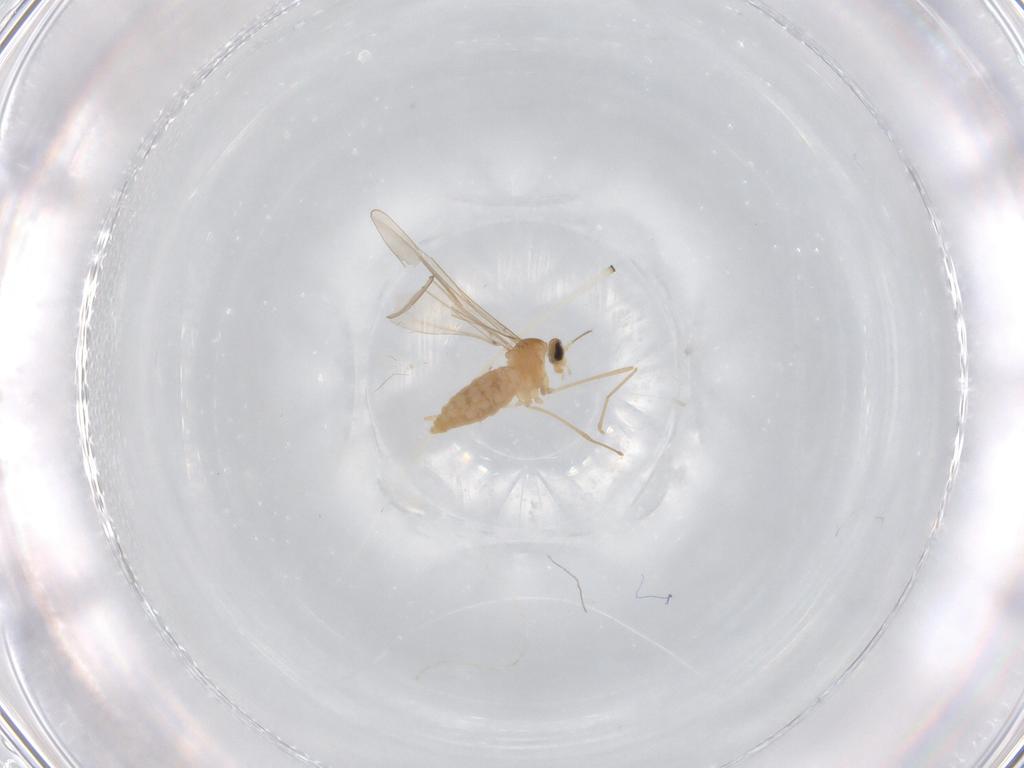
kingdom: Animalia
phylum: Arthropoda
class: Insecta
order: Diptera
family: Cecidomyiidae
